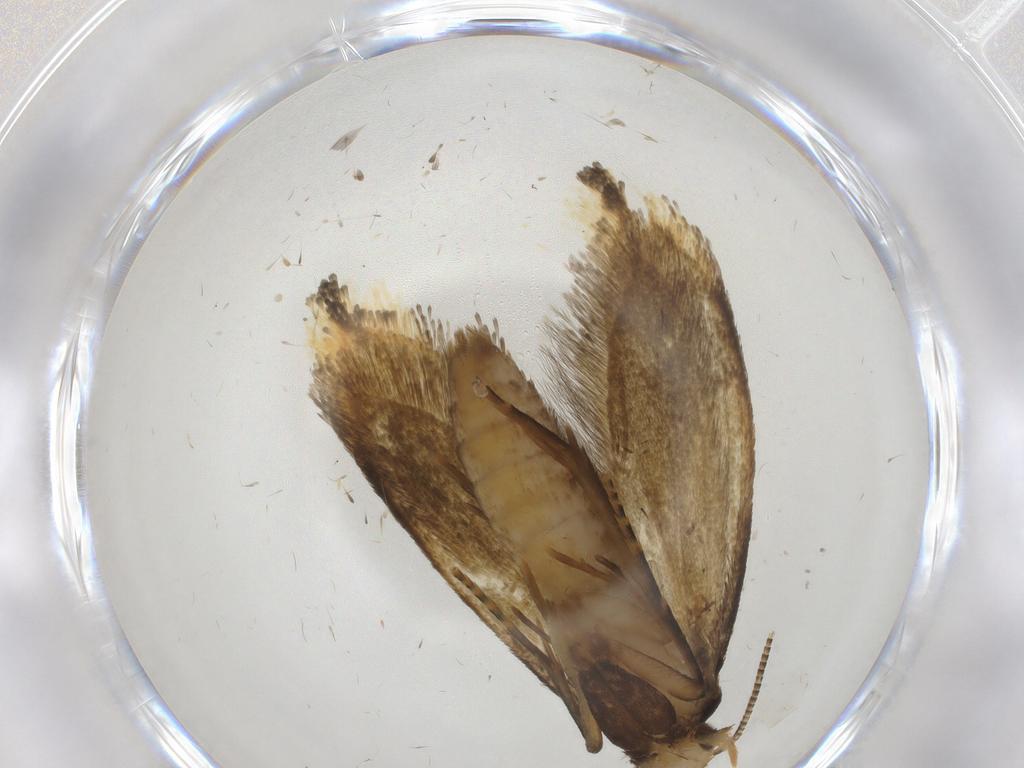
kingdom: Animalia
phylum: Arthropoda
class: Insecta
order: Lepidoptera
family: Pieridae
